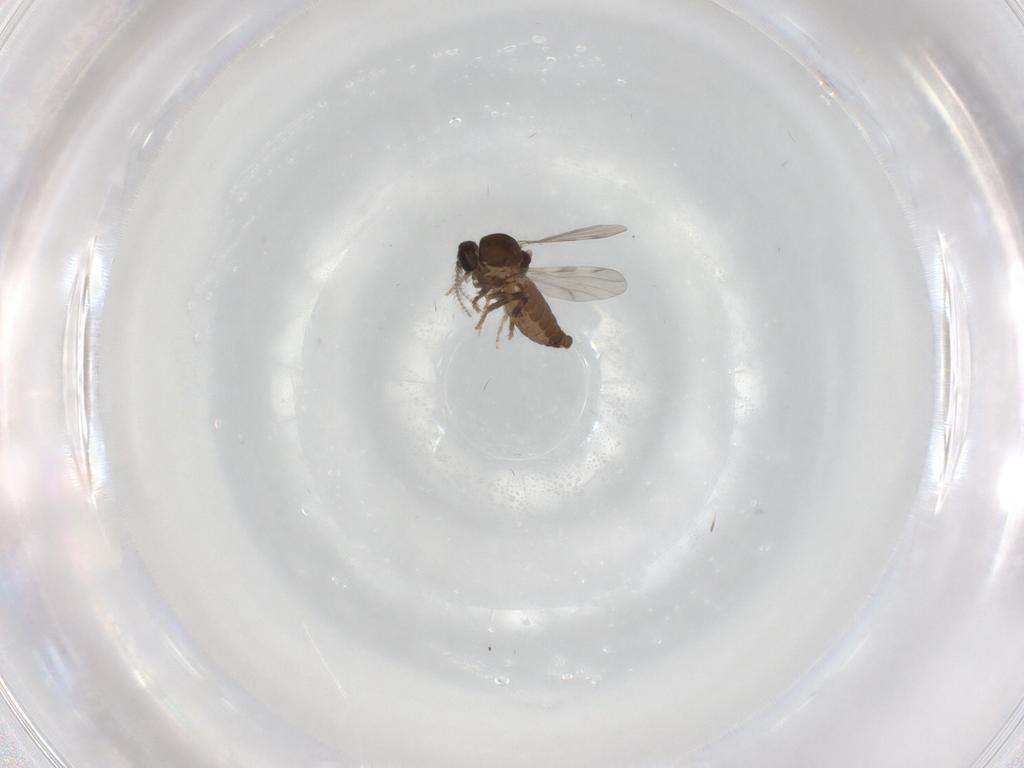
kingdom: Animalia
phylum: Arthropoda
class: Insecta
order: Diptera
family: Ceratopogonidae
